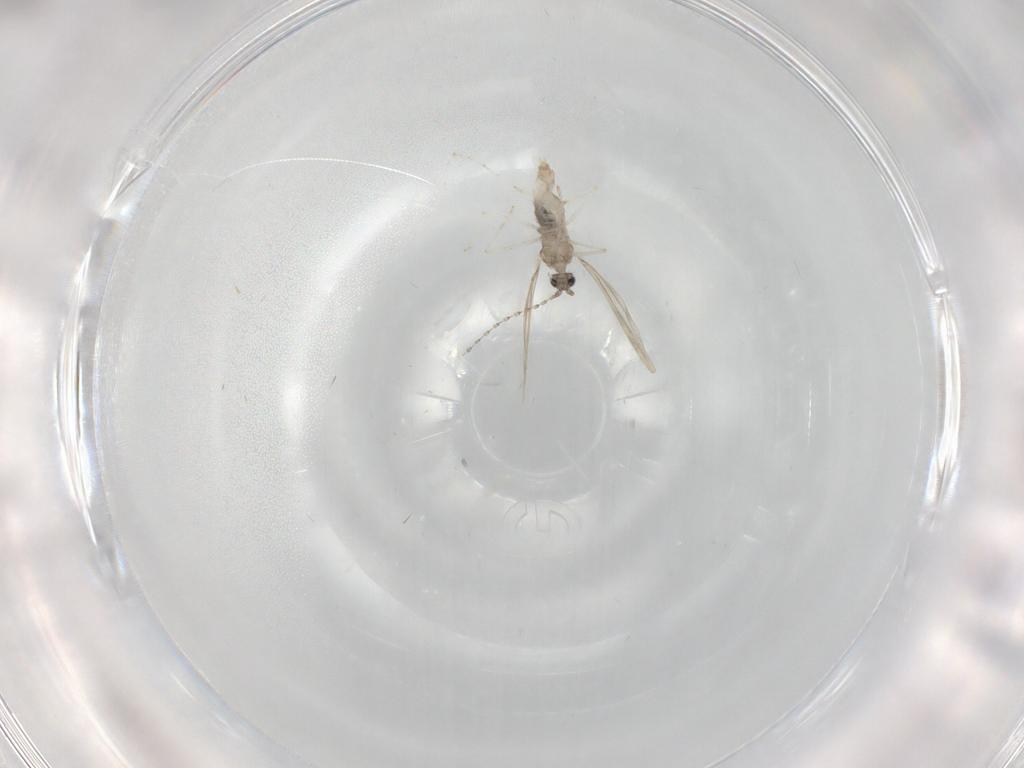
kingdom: Animalia
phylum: Arthropoda
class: Insecta
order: Diptera
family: Cecidomyiidae
